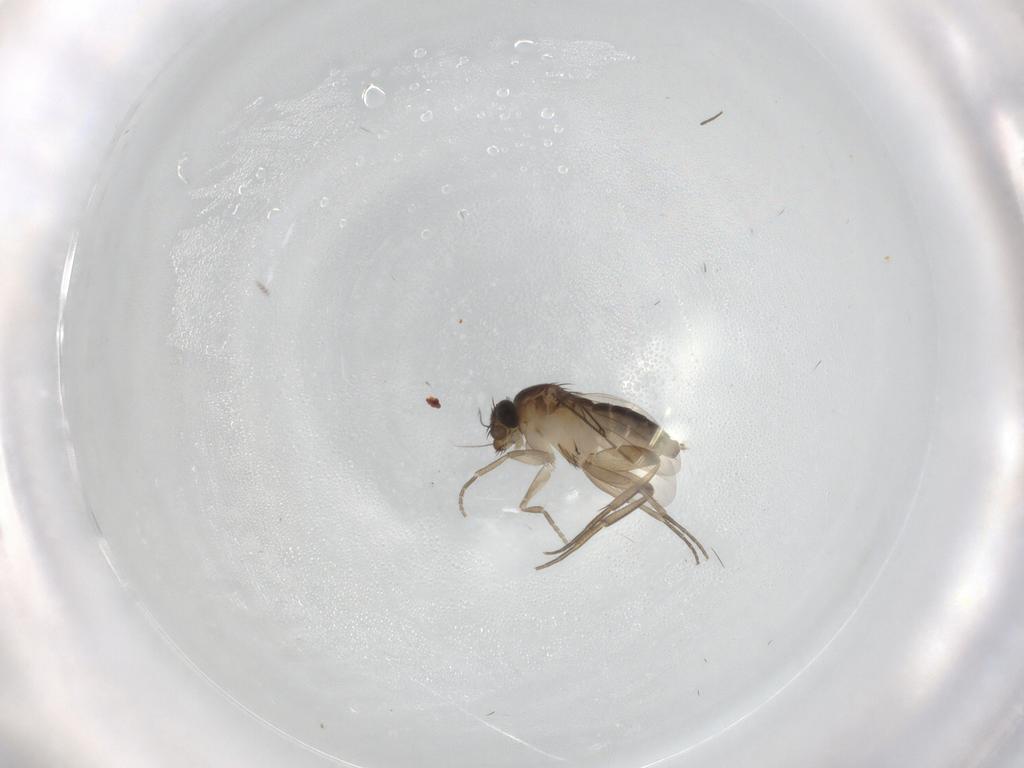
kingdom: Animalia
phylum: Arthropoda
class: Insecta
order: Diptera
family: Phoridae
